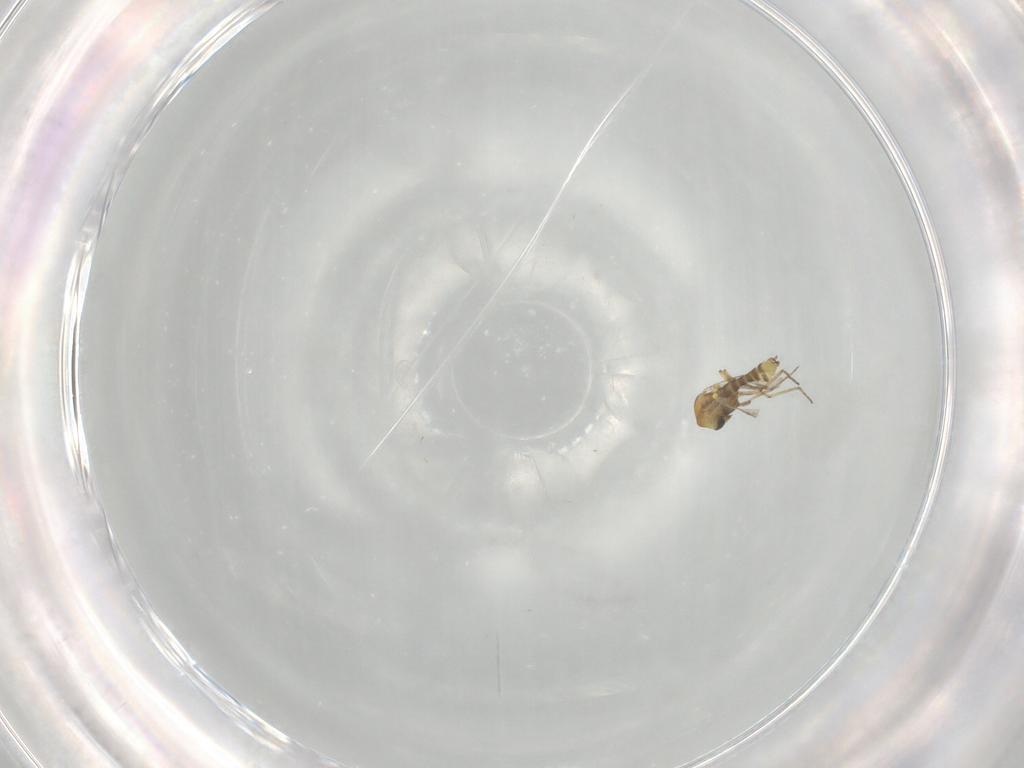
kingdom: Animalia
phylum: Arthropoda
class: Insecta
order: Diptera
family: Ceratopogonidae
